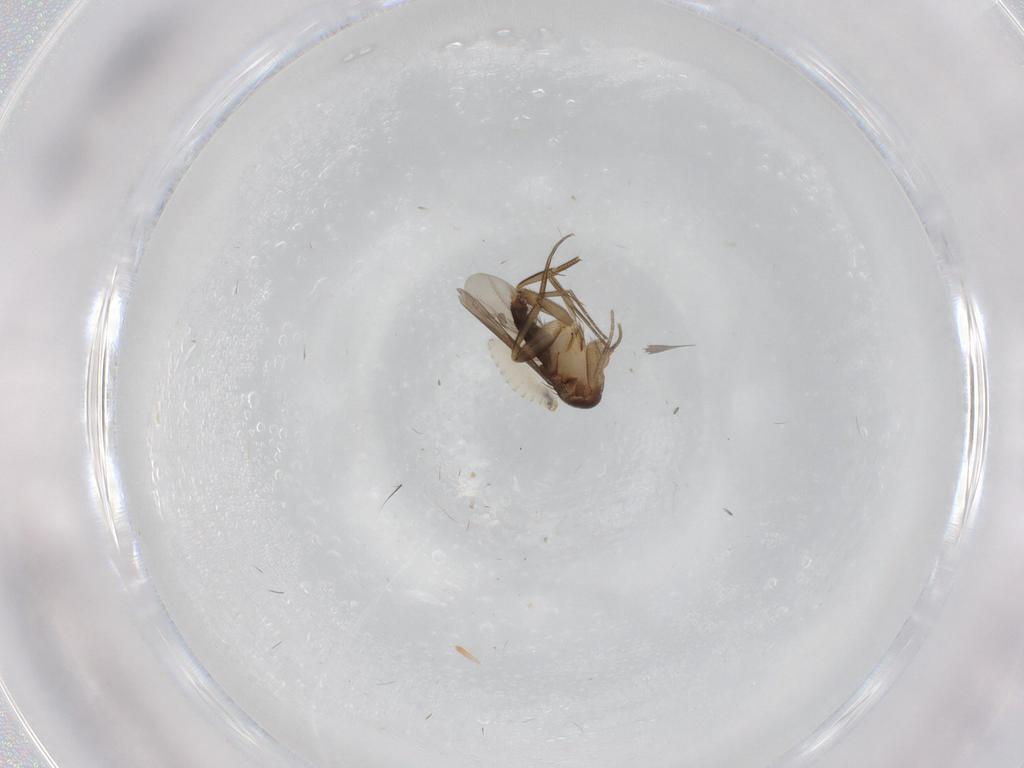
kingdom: Animalia
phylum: Arthropoda
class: Insecta
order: Diptera
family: Phoridae
